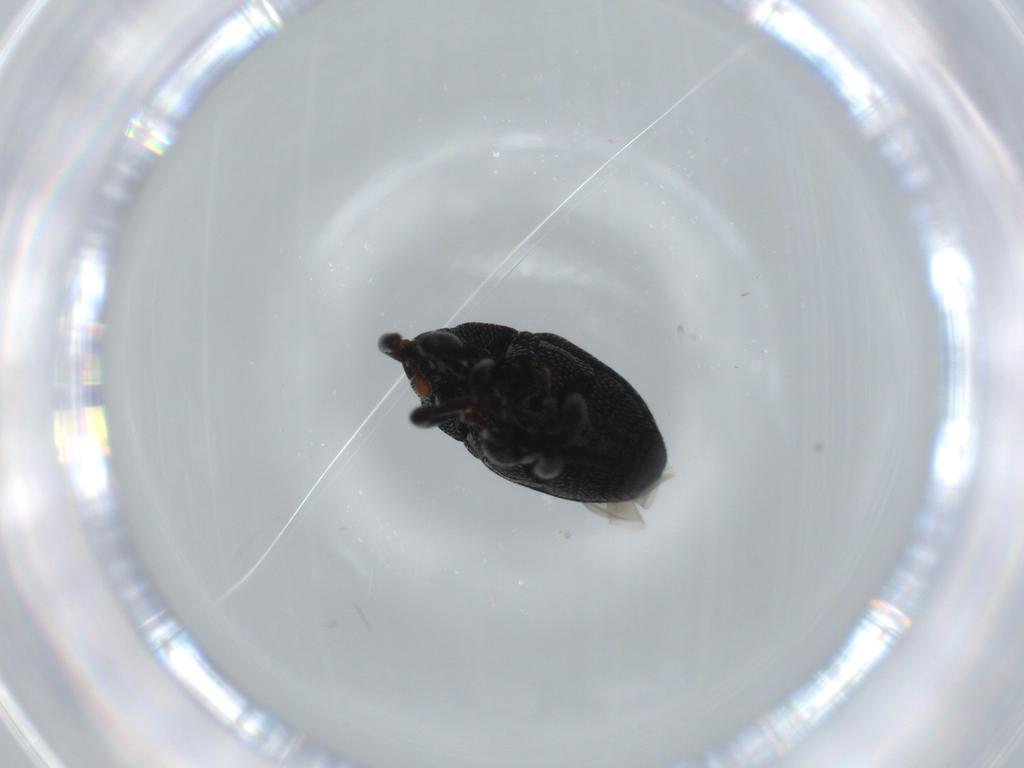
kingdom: Animalia
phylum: Arthropoda
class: Insecta
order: Coleoptera
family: Curculionidae
